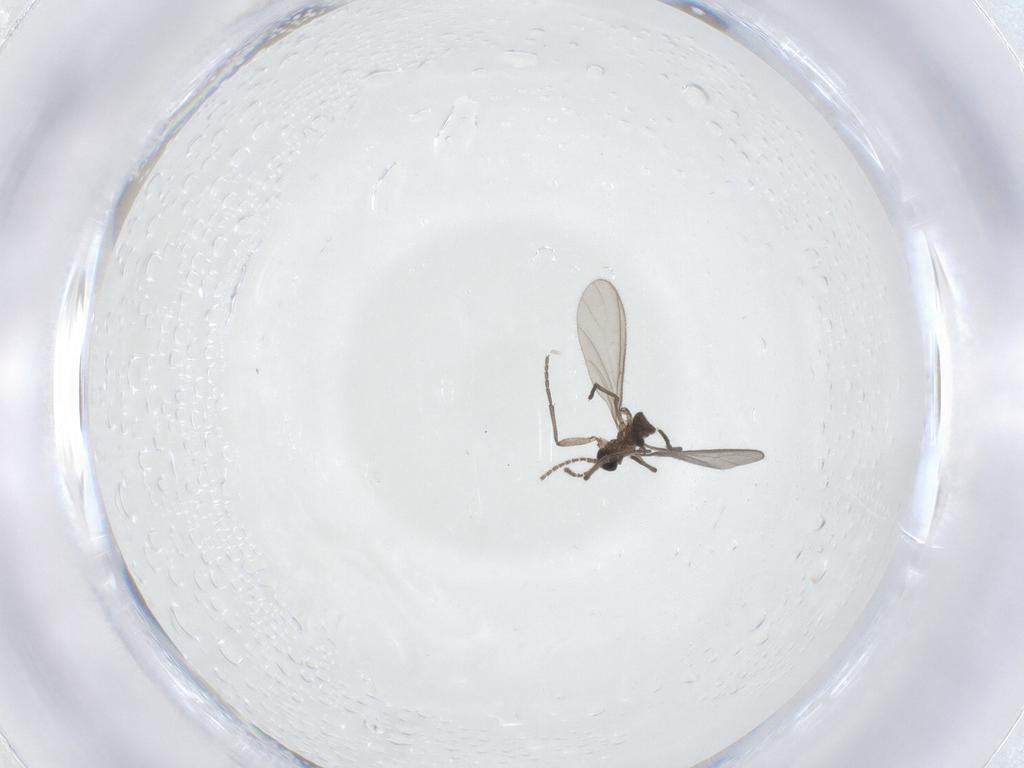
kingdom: Animalia
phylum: Arthropoda
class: Insecta
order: Diptera
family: Sciaridae
